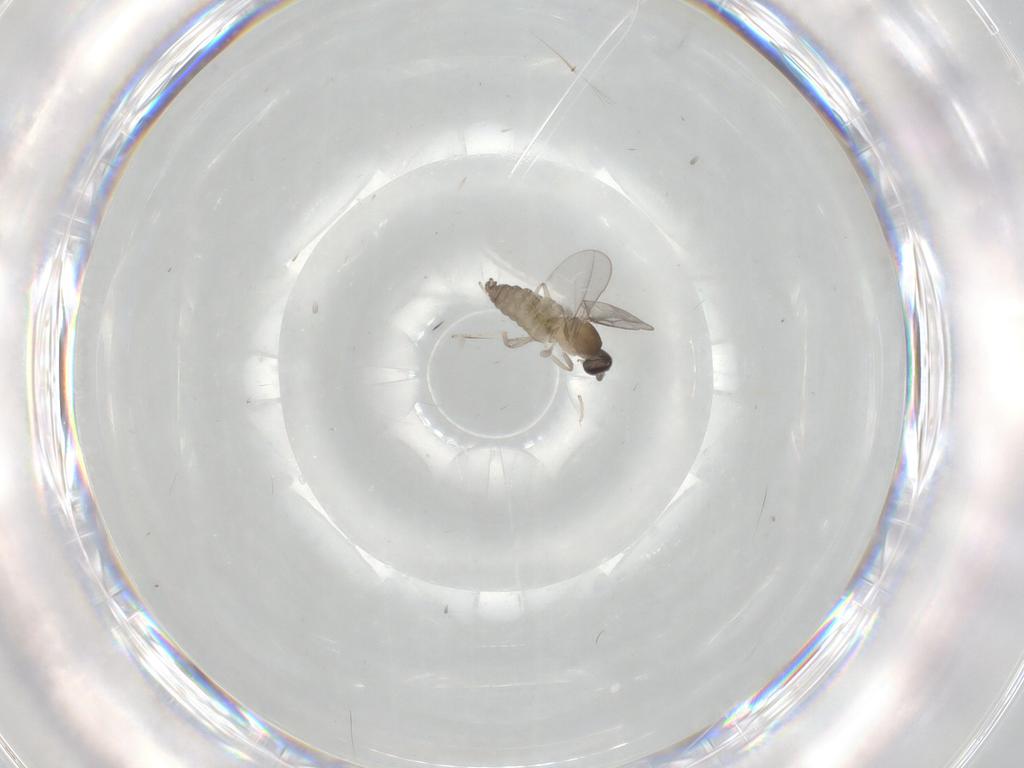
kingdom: Animalia
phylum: Arthropoda
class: Insecta
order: Diptera
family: Cecidomyiidae
